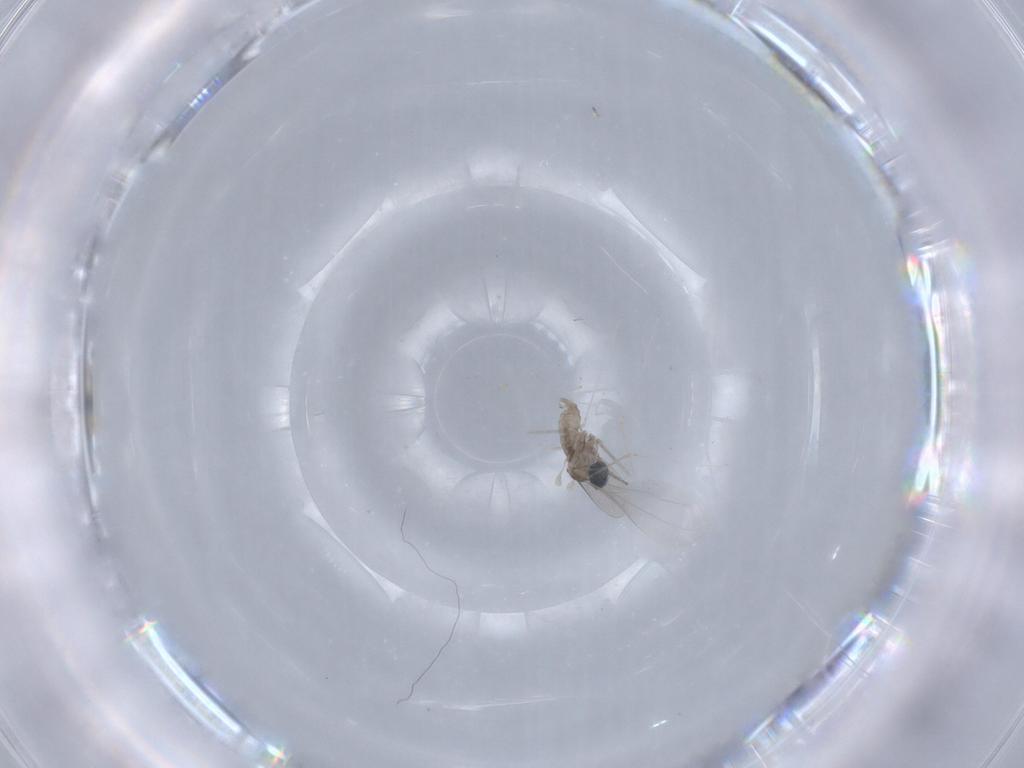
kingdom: Animalia
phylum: Arthropoda
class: Insecta
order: Diptera
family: Cecidomyiidae
